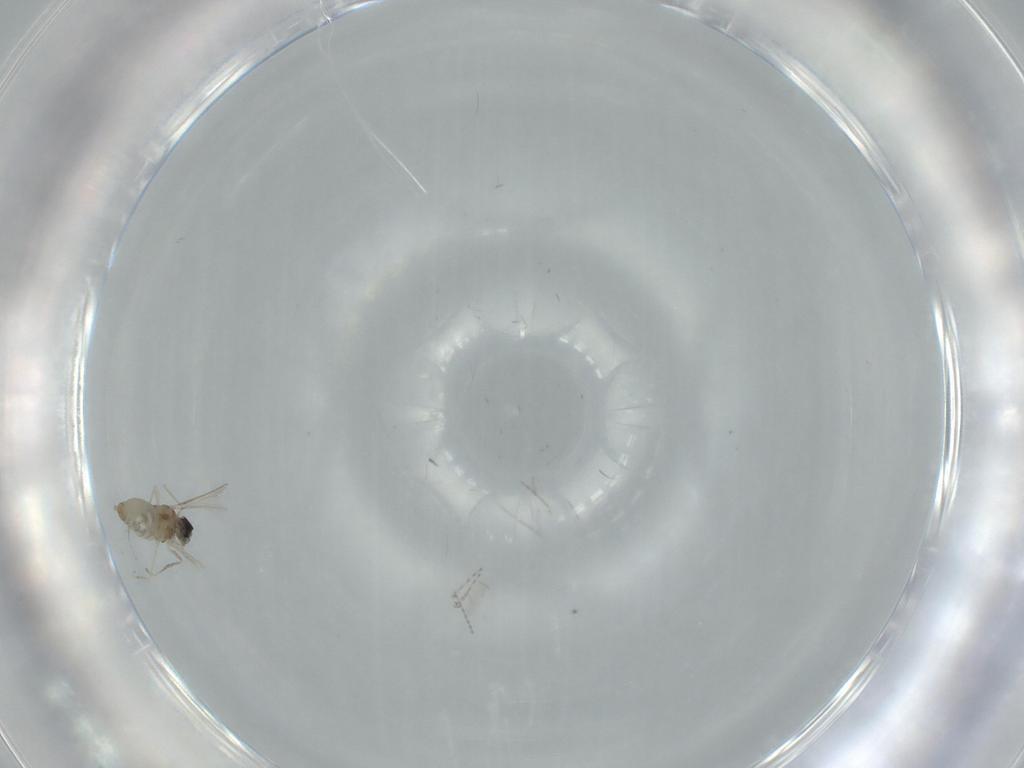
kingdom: Animalia
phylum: Arthropoda
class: Insecta
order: Diptera
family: Cecidomyiidae
